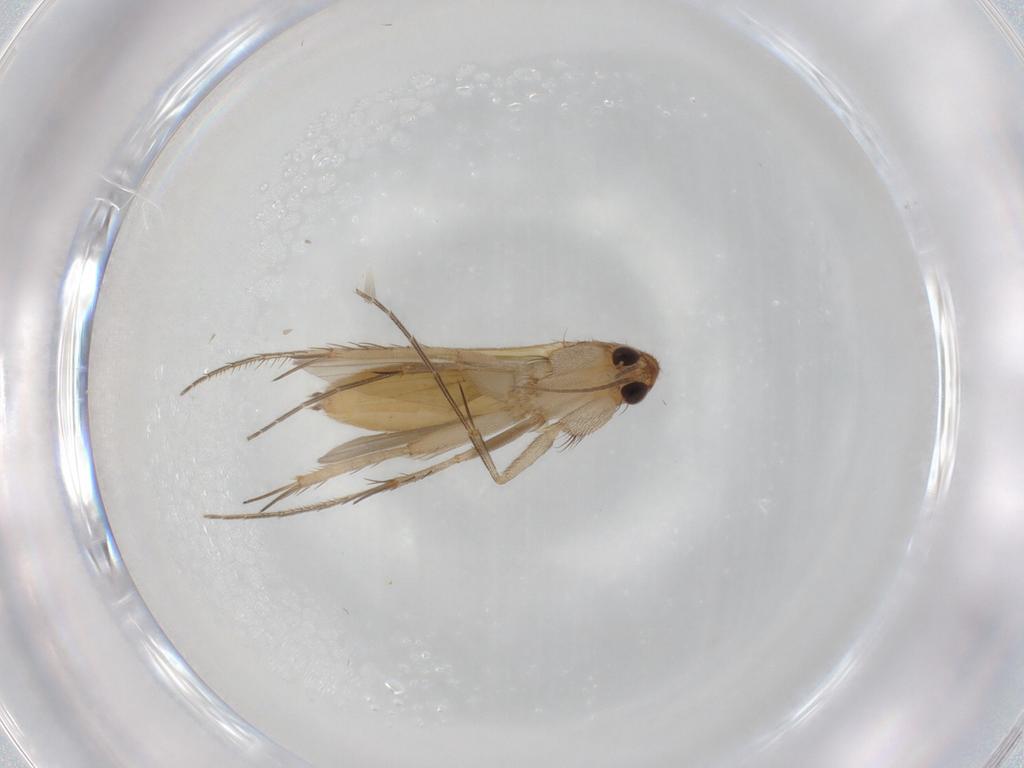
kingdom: Animalia
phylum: Arthropoda
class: Insecta
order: Diptera
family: Mycetophilidae
